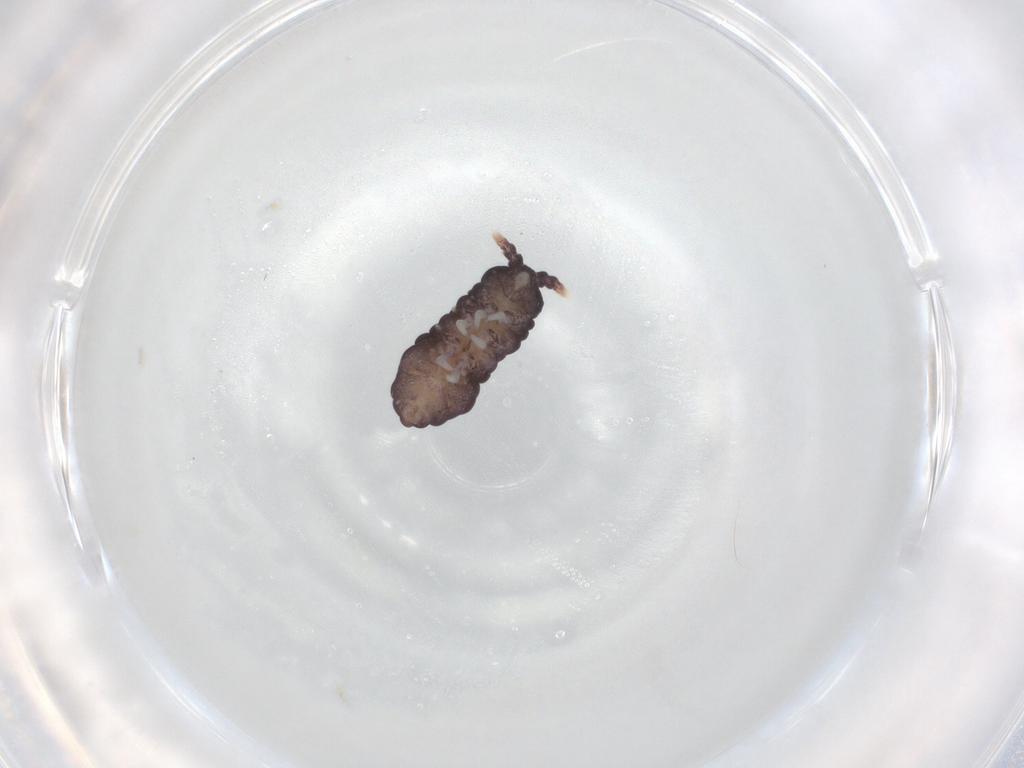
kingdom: Animalia
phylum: Arthropoda
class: Collembola
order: Poduromorpha
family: Neanuridae
